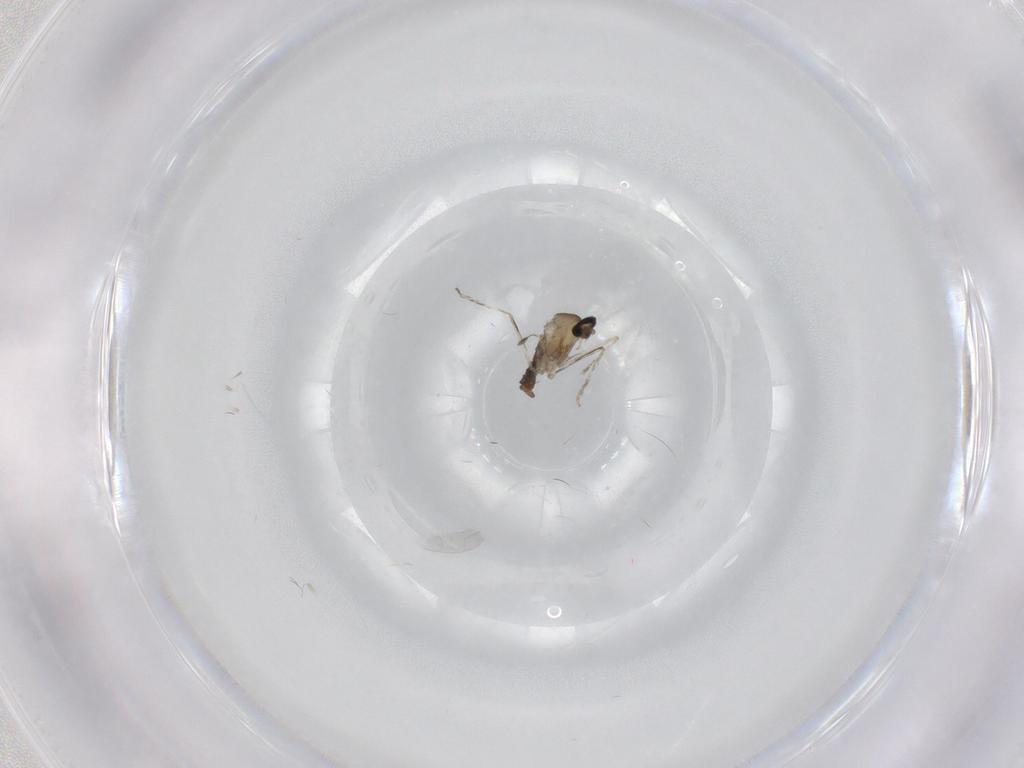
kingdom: Animalia
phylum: Arthropoda
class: Insecta
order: Diptera
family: Cecidomyiidae
